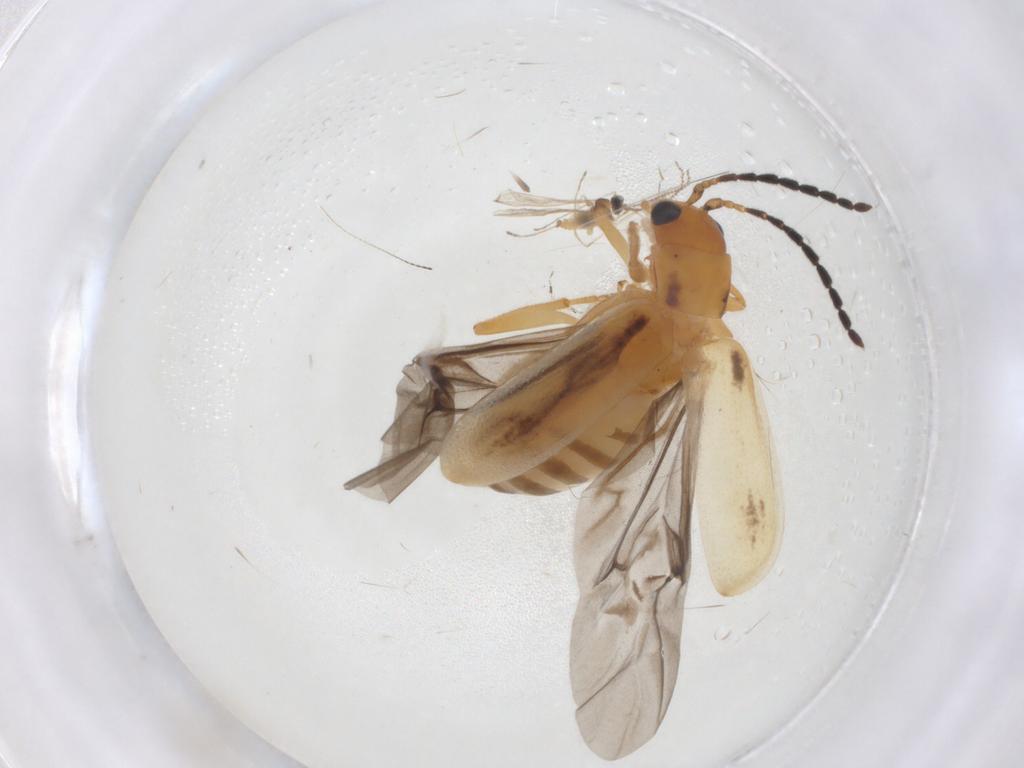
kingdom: Animalia
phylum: Arthropoda
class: Insecta
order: Coleoptera
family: Chrysomelidae
